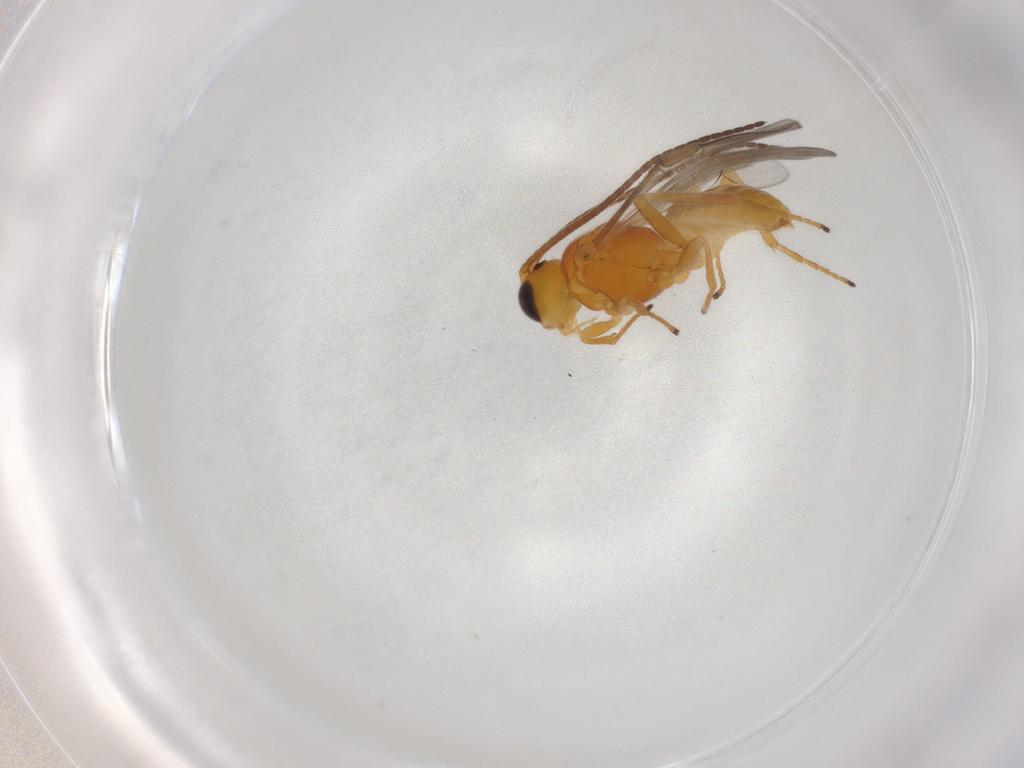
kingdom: Animalia
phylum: Arthropoda
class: Insecta
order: Hymenoptera
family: Braconidae
